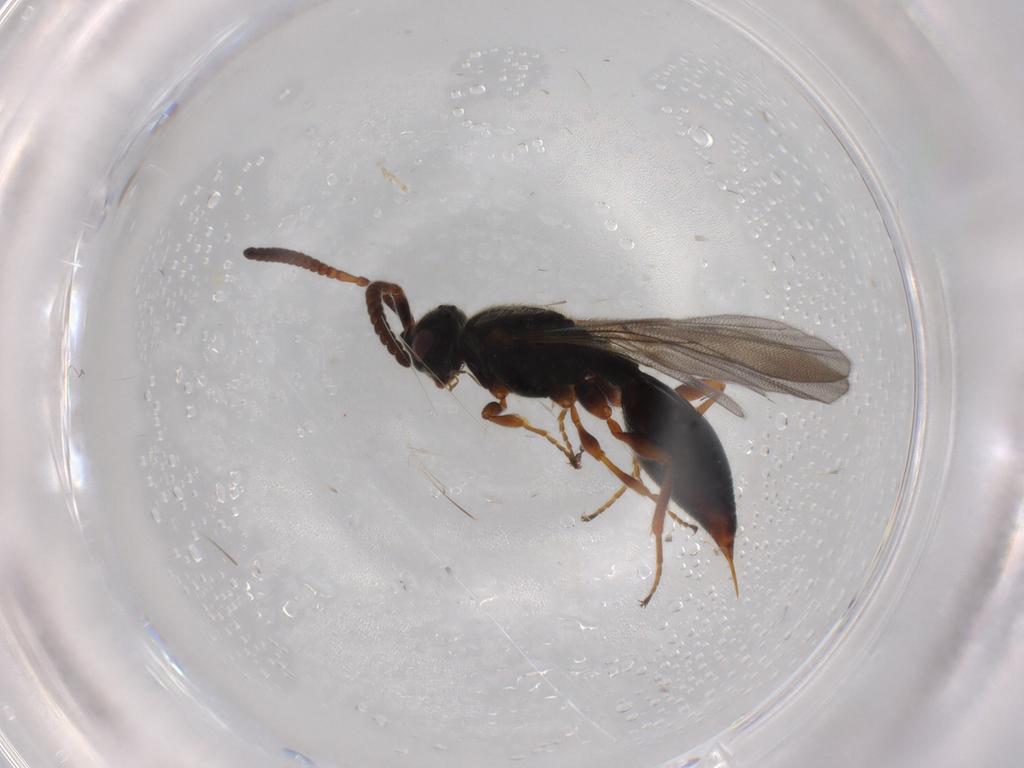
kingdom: Animalia
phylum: Arthropoda
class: Insecta
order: Hymenoptera
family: Diapriidae
